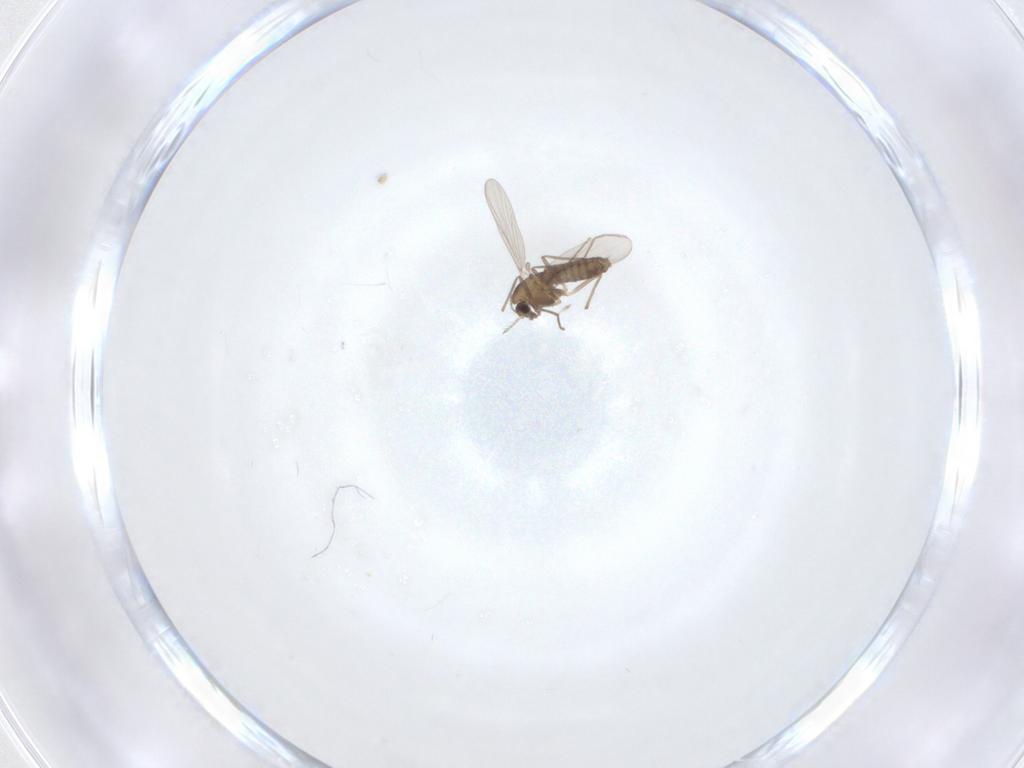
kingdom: Animalia
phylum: Arthropoda
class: Insecta
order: Diptera
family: Chironomidae
